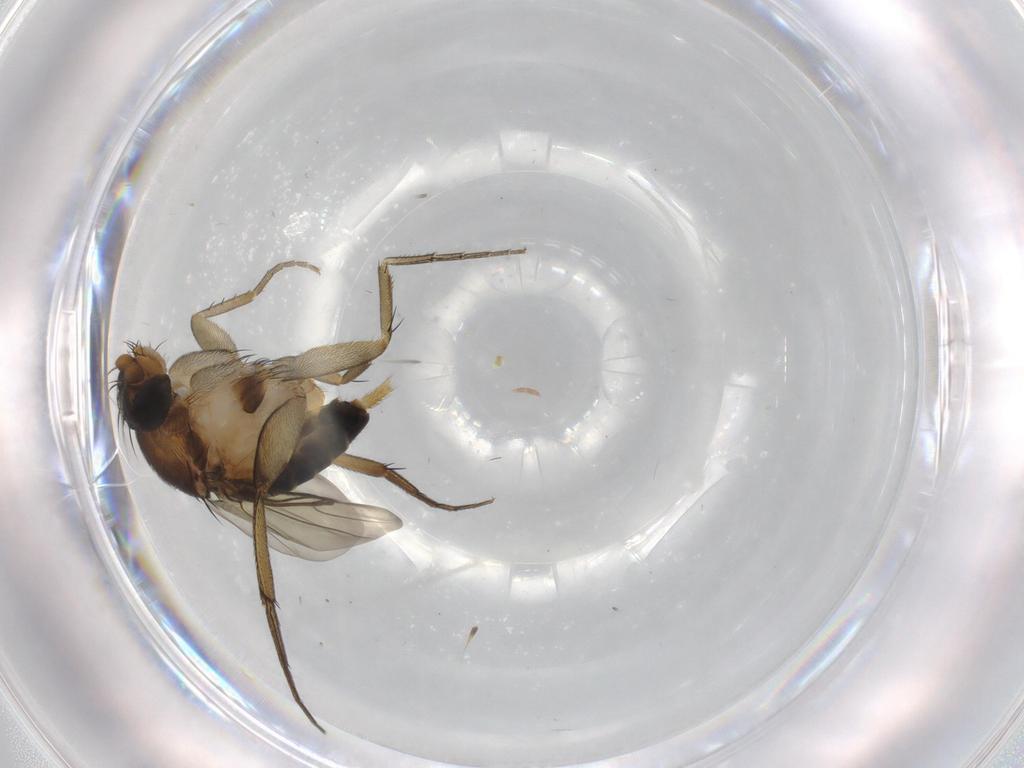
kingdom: Animalia
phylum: Arthropoda
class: Insecta
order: Diptera
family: Phoridae
